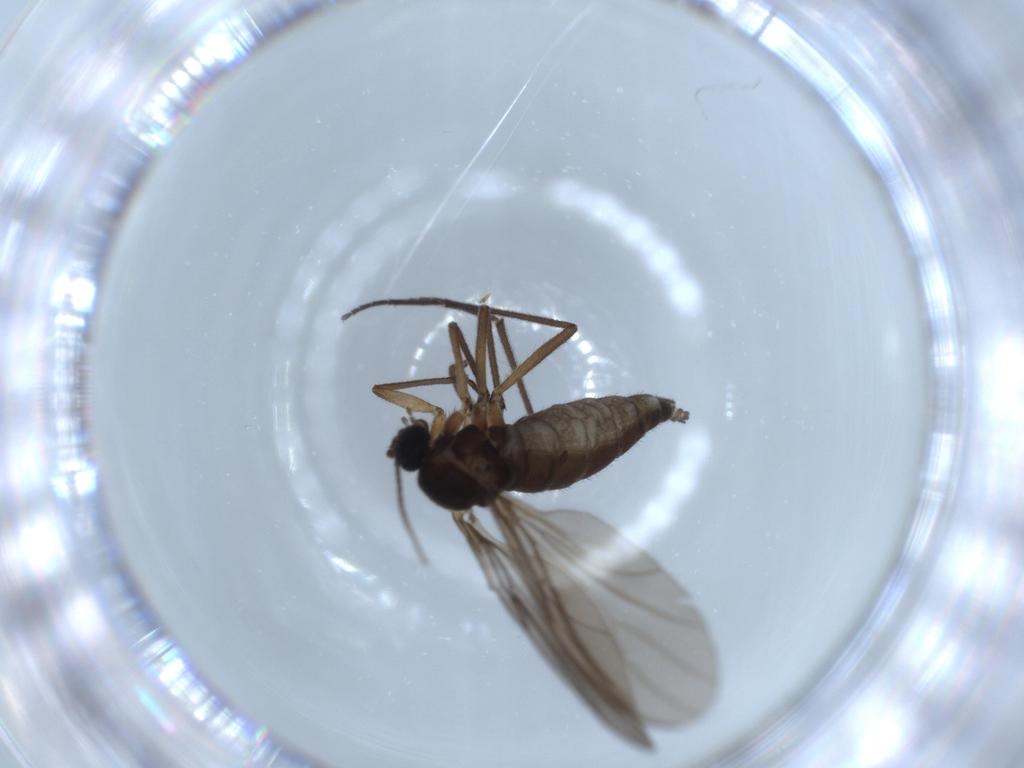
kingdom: Animalia
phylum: Arthropoda
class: Insecta
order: Diptera
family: Sciaridae
